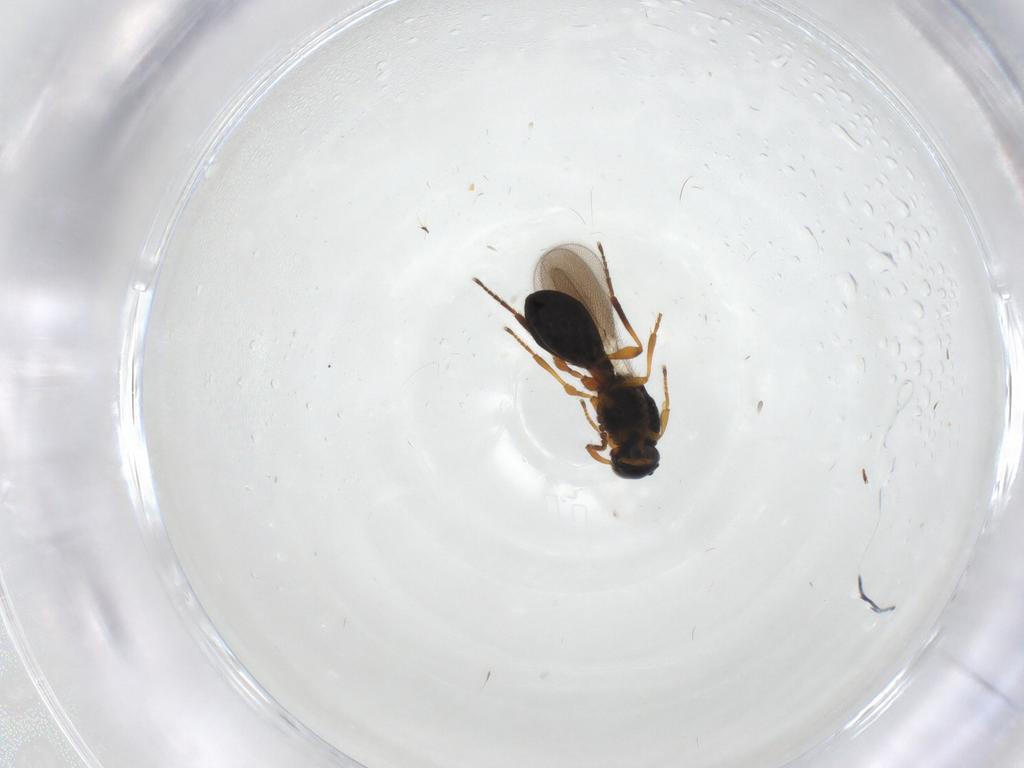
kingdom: Animalia
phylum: Arthropoda
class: Insecta
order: Hymenoptera
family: Platygastridae
